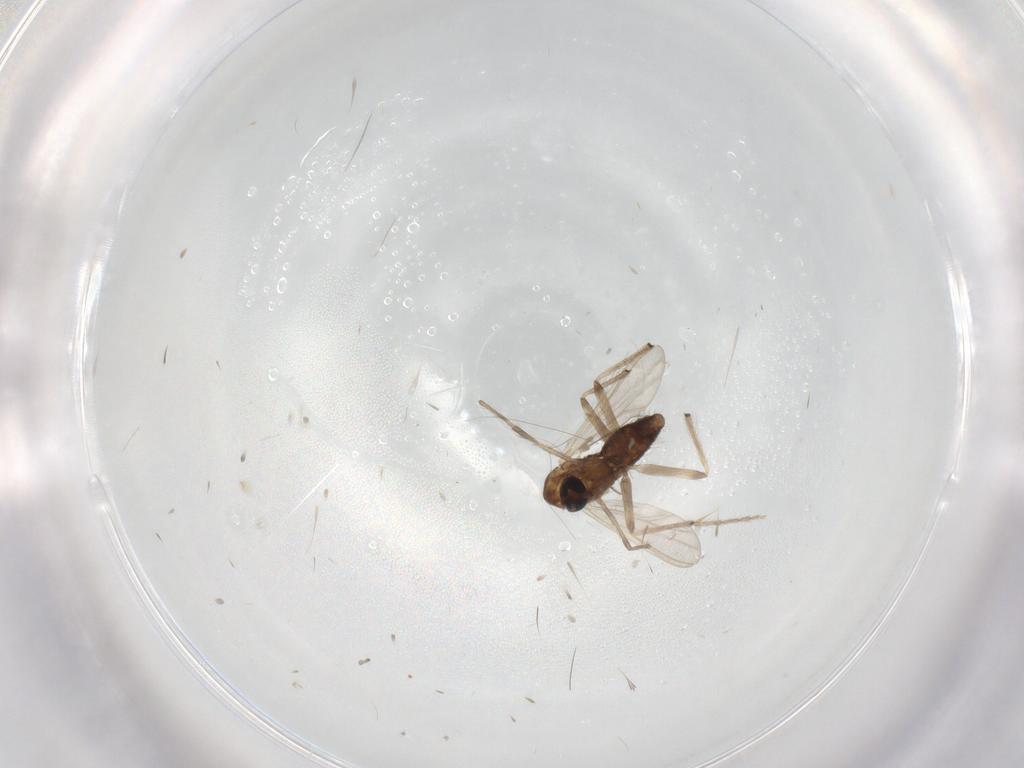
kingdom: Animalia
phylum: Arthropoda
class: Insecta
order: Diptera
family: Chironomidae
